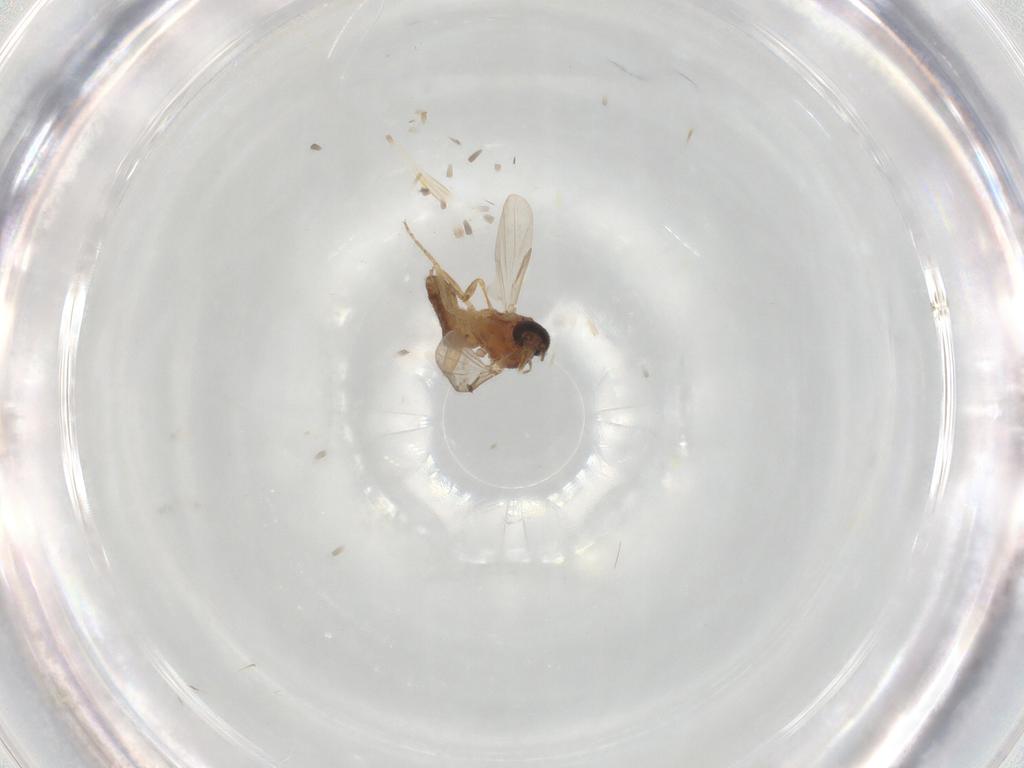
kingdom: Animalia
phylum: Arthropoda
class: Insecta
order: Diptera
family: Ceratopogonidae
